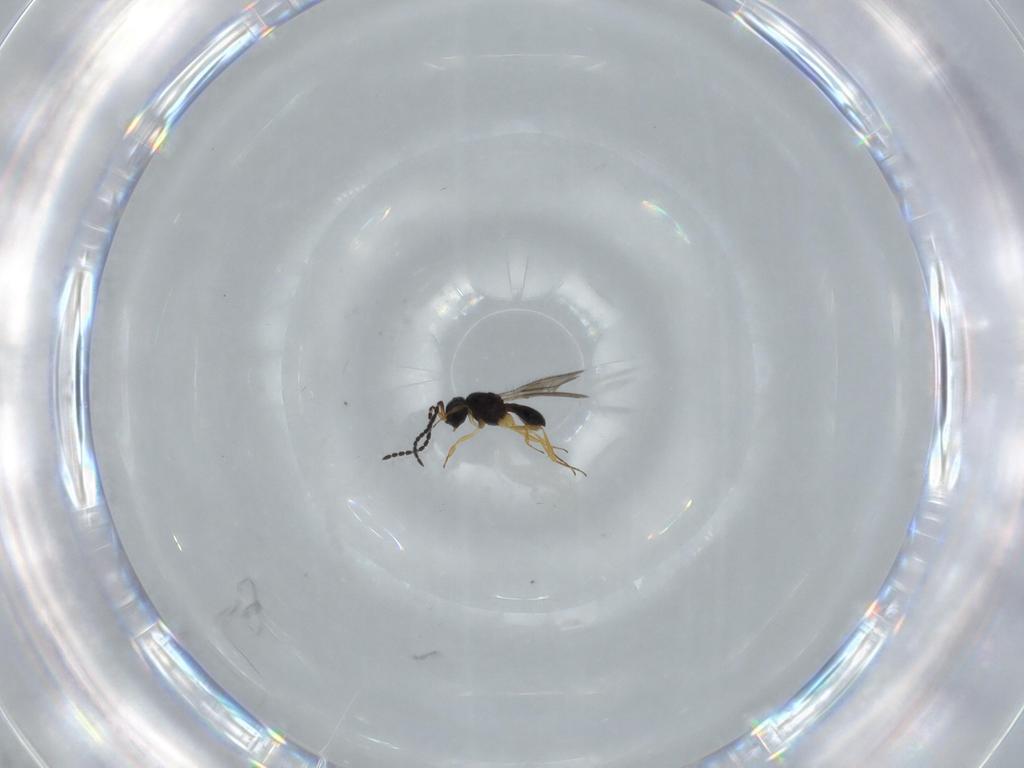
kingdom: Animalia
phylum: Arthropoda
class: Insecta
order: Hymenoptera
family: Scelionidae
